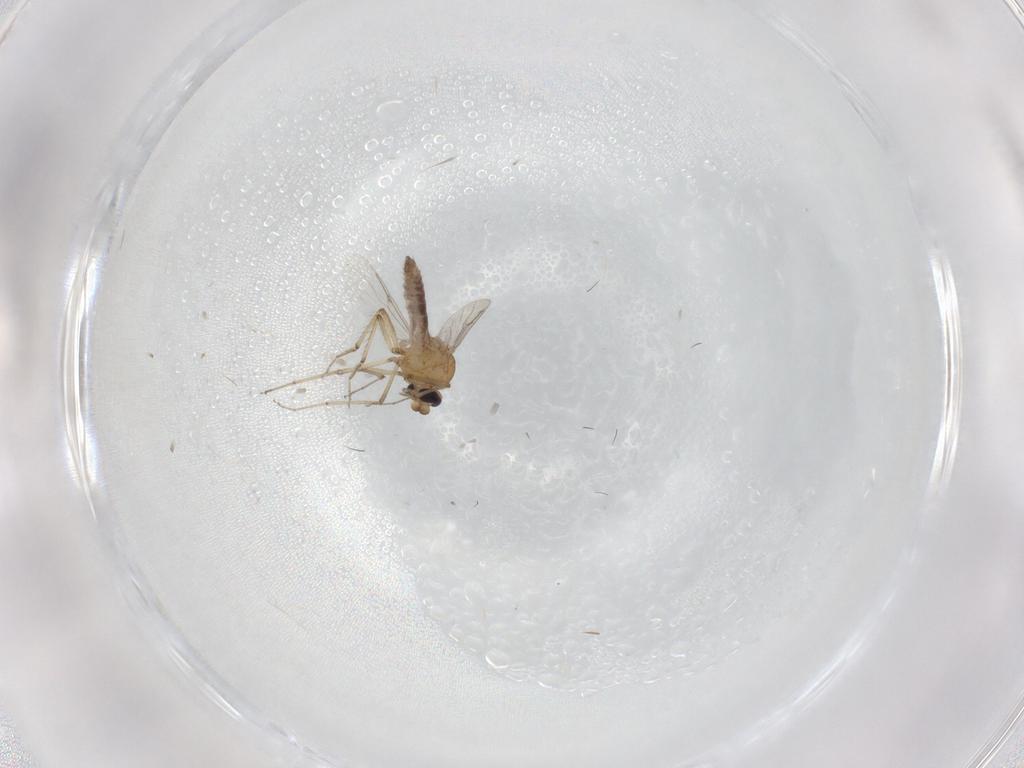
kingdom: Animalia
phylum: Arthropoda
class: Insecta
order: Diptera
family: Ceratopogonidae
